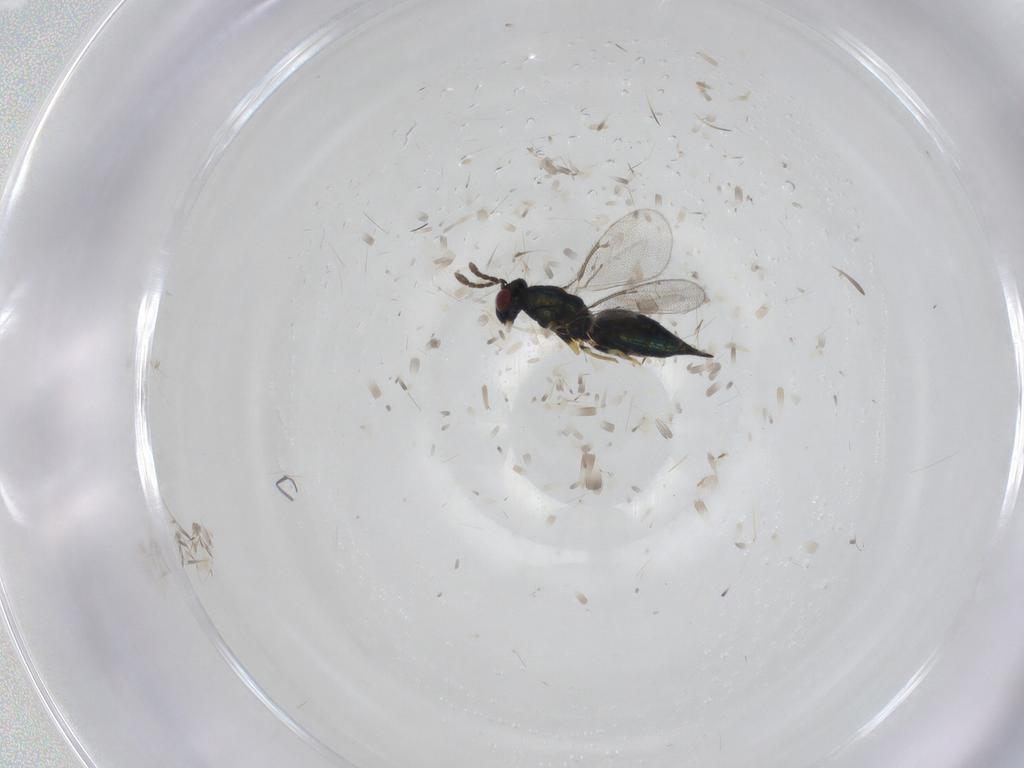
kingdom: Animalia
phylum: Arthropoda
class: Insecta
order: Hymenoptera
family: Eulophidae
